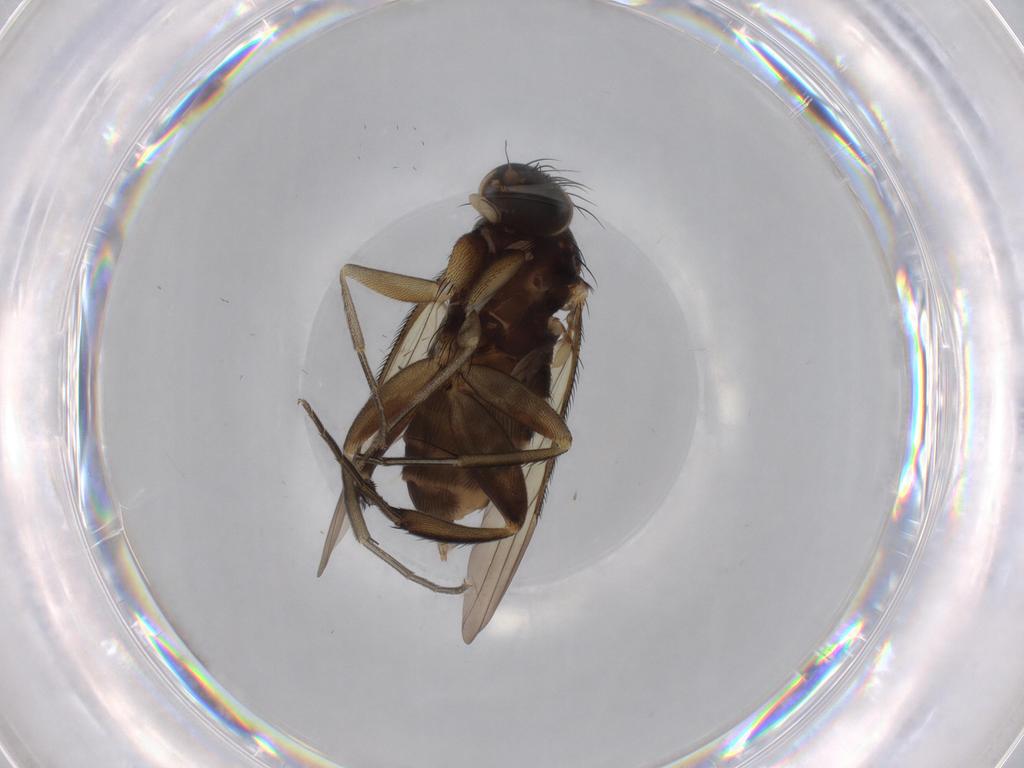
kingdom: Animalia
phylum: Arthropoda
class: Insecta
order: Diptera
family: Phoridae
